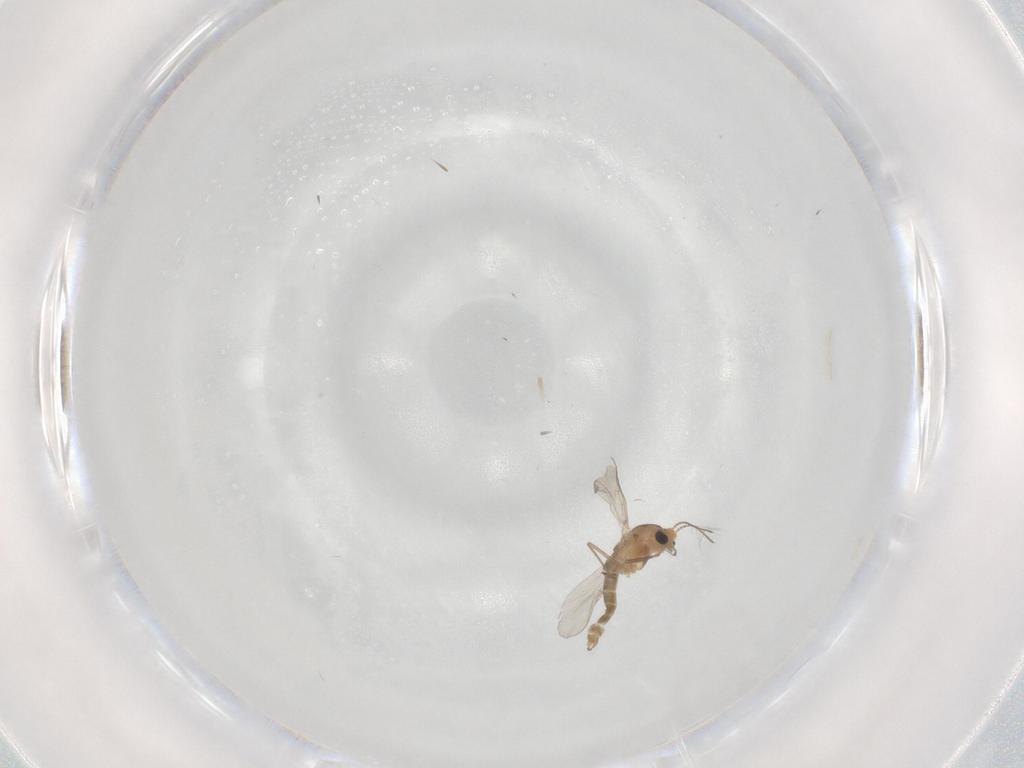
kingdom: Animalia
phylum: Arthropoda
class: Insecta
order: Diptera
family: Chironomidae
